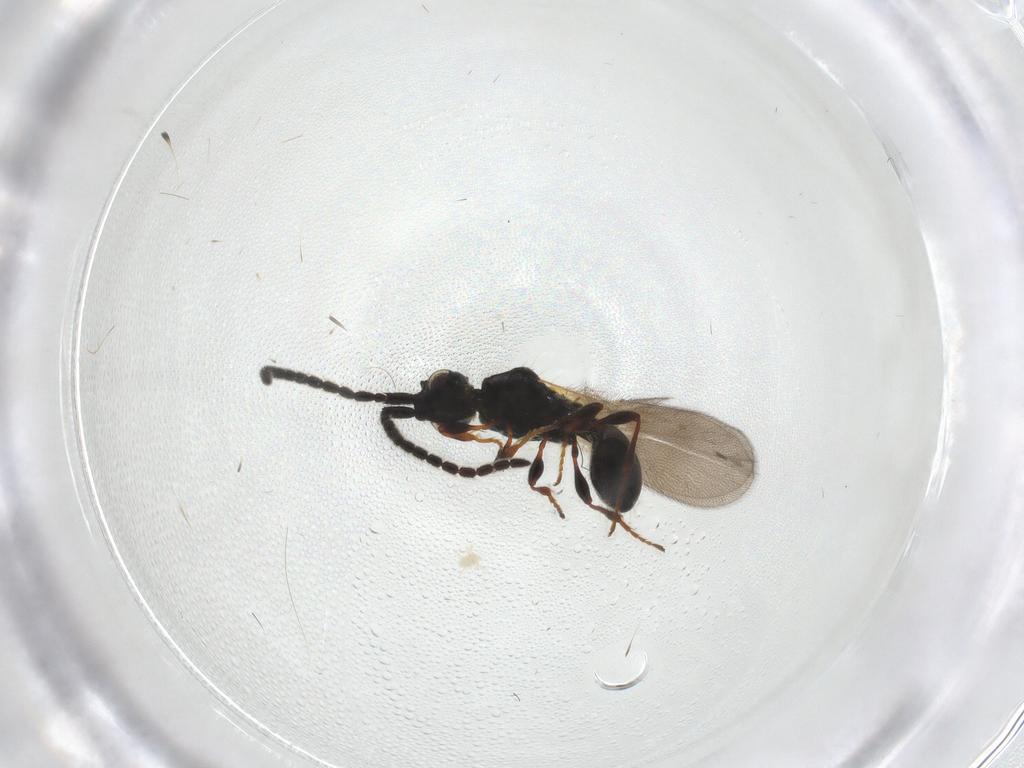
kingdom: Animalia
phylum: Arthropoda
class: Insecta
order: Hymenoptera
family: Diapriidae
